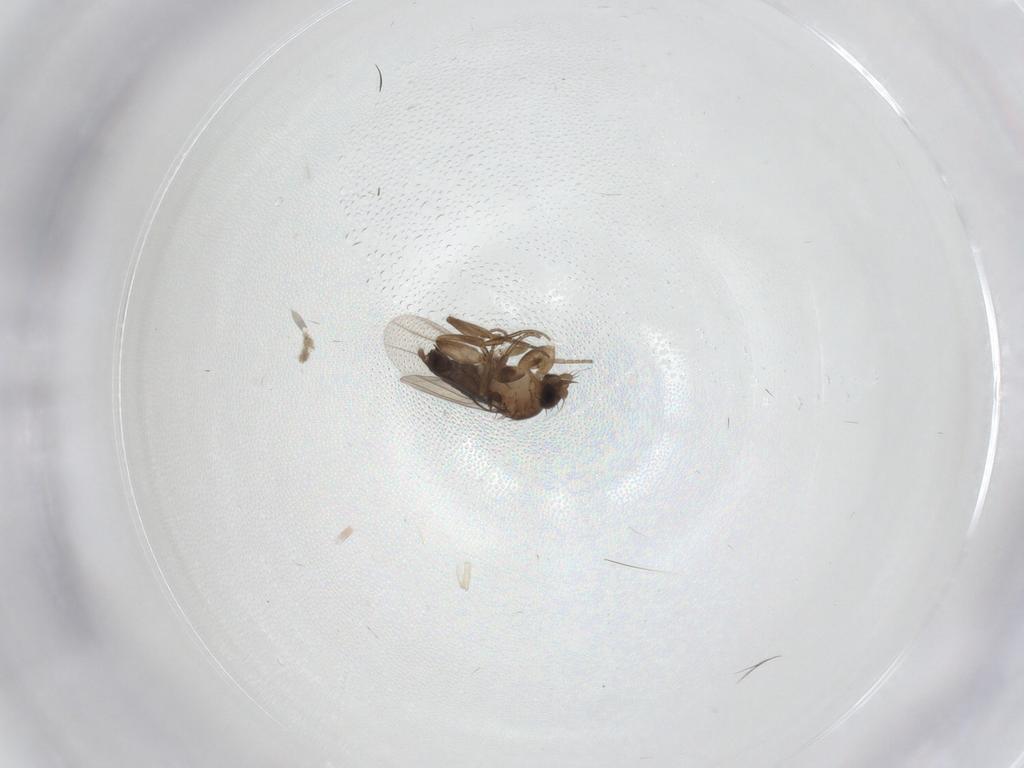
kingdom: Animalia
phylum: Arthropoda
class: Insecta
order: Diptera
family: Phoridae
